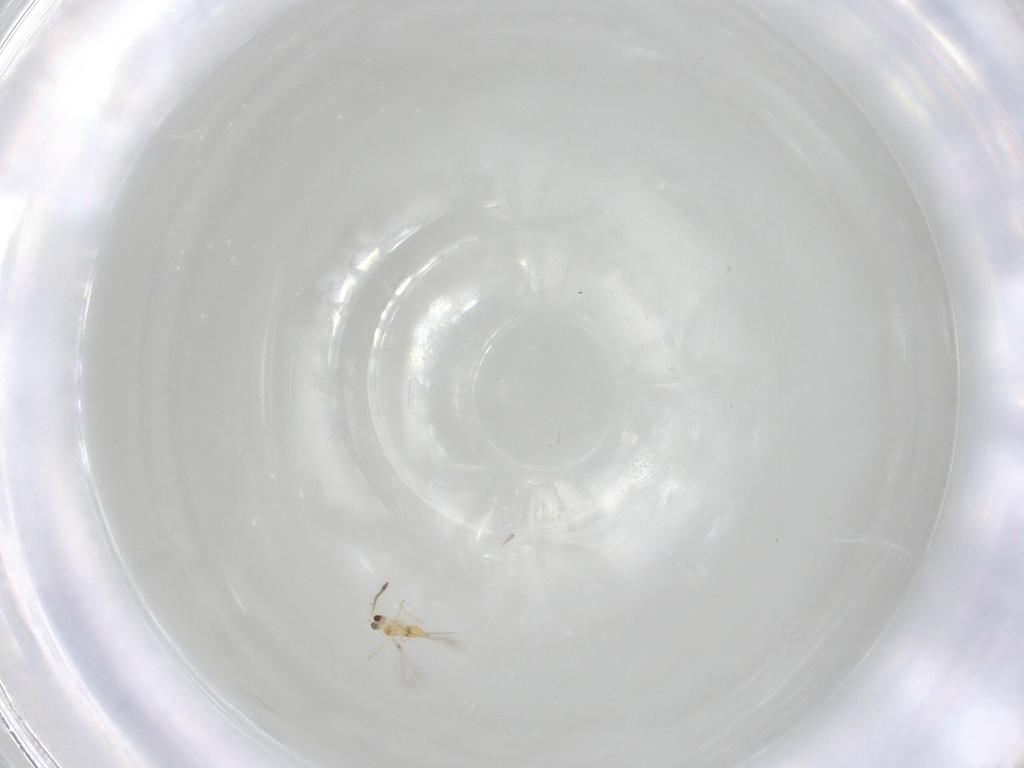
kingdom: Animalia
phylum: Arthropoda
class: Insecta
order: Hymenoptera
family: Mymaridae
